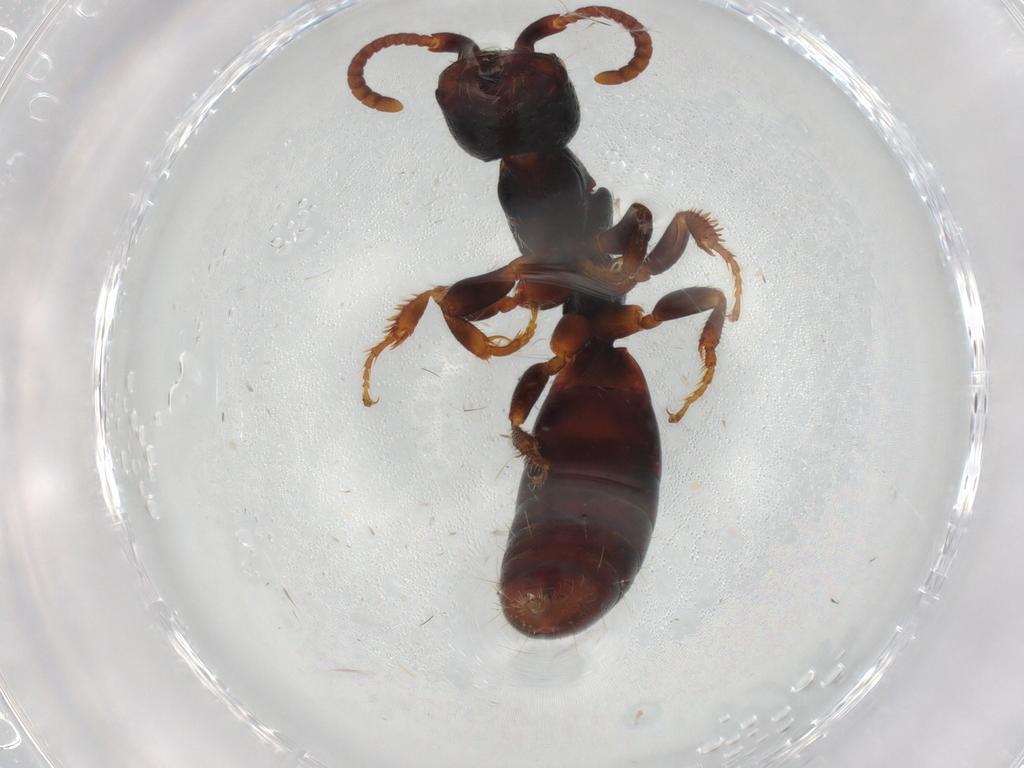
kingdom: Animalia
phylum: Arthropoda
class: Insecta
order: Hymenoptera
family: Bethylidae
